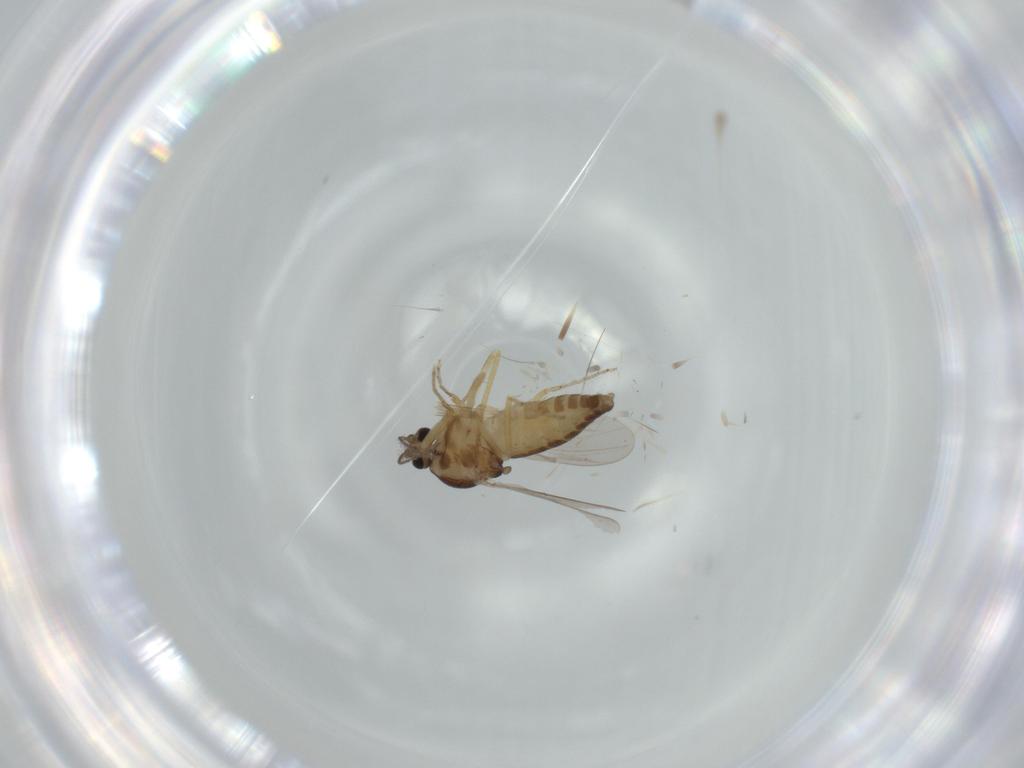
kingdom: Animalia
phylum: Arthropoda
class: Insecta
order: Diptera
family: Ceratopogonidae
